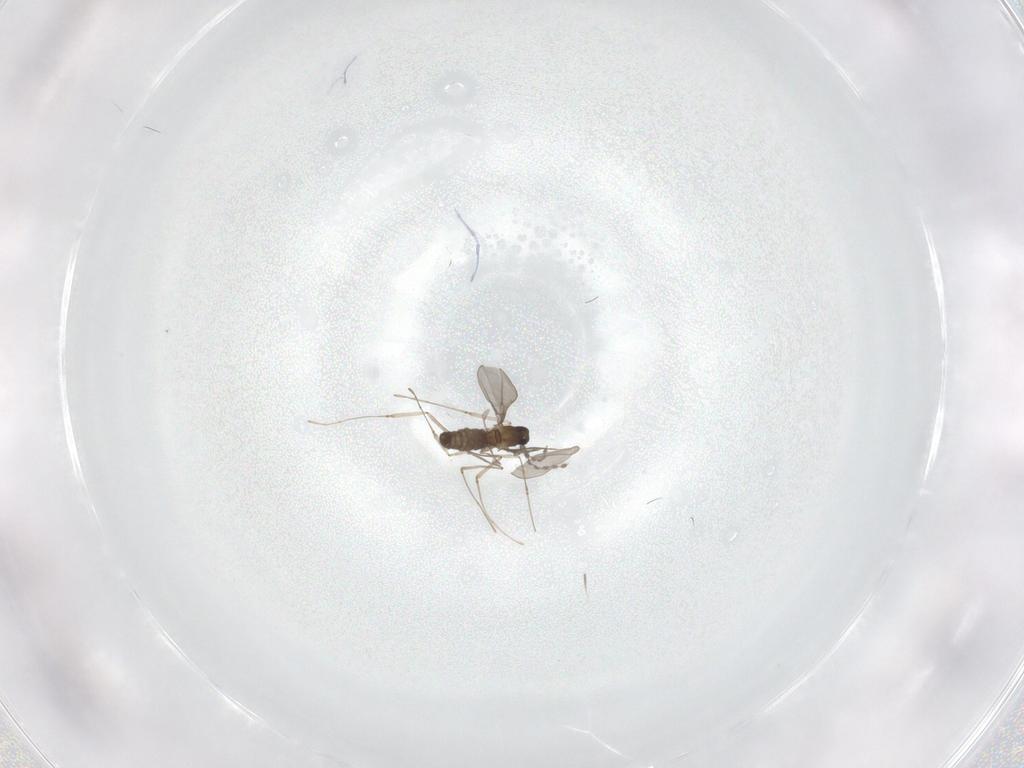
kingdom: Animalia
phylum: Arthropoda
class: Insecta
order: Diptera
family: Cecidomyiidae
